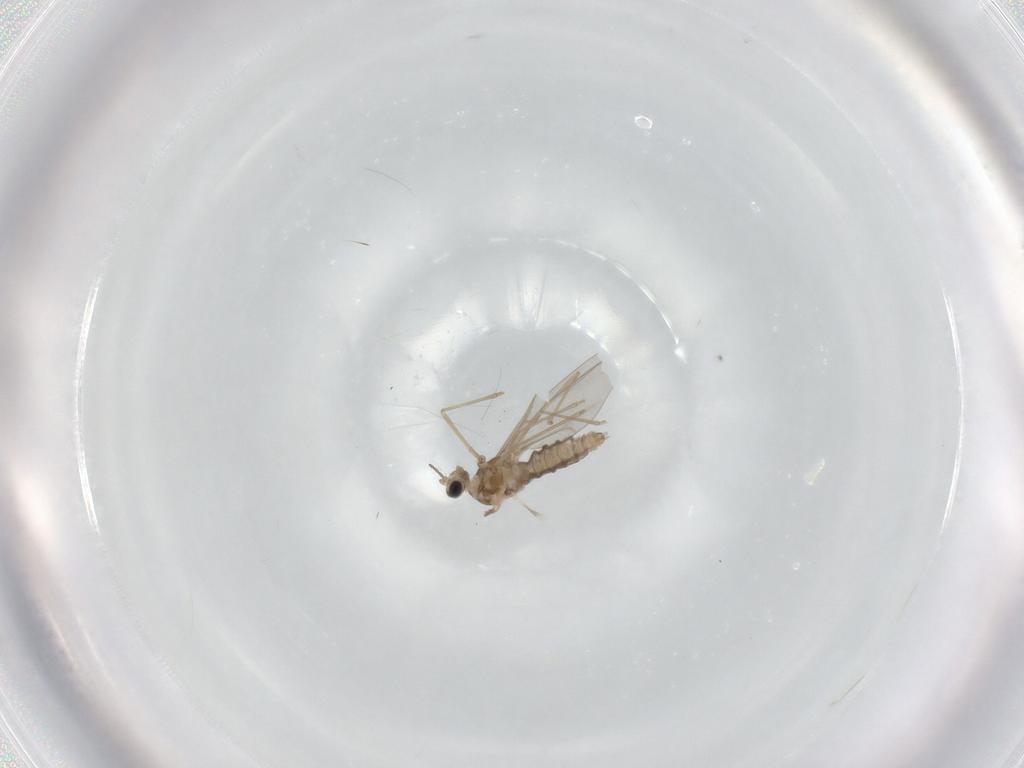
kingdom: Animalia
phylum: Arthropoda
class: Insecta
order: Diptera
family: Cecidomyiidae
